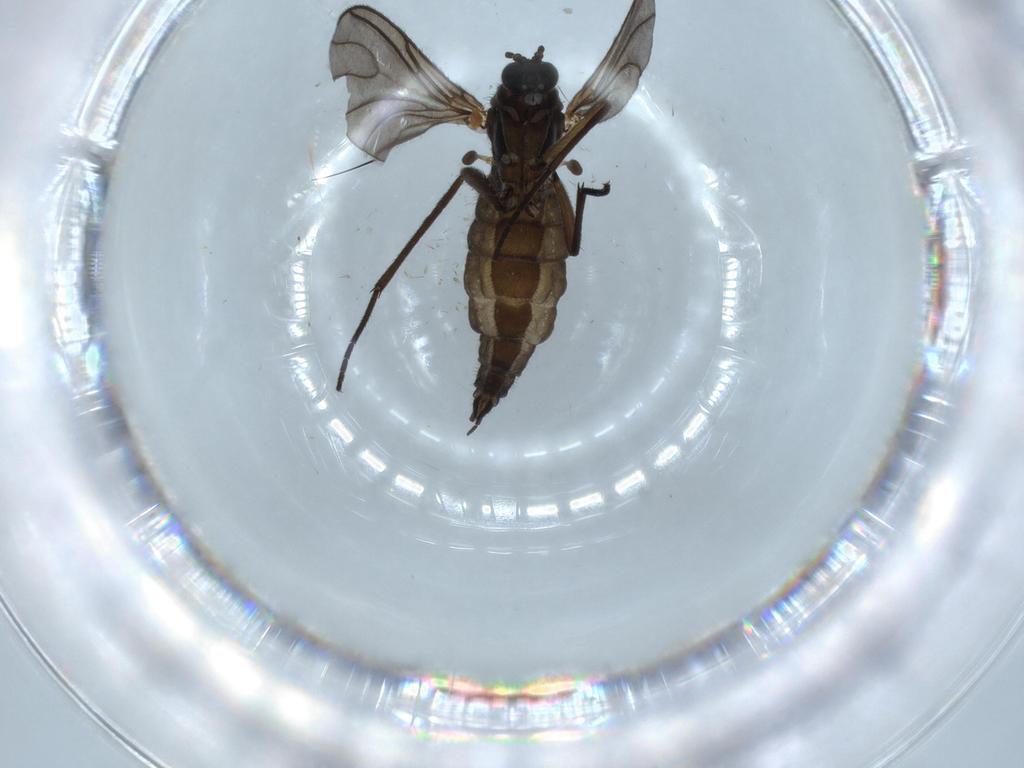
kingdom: Animalia
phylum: Arthropoda
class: Insecta
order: Diptera
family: Sciaridae
